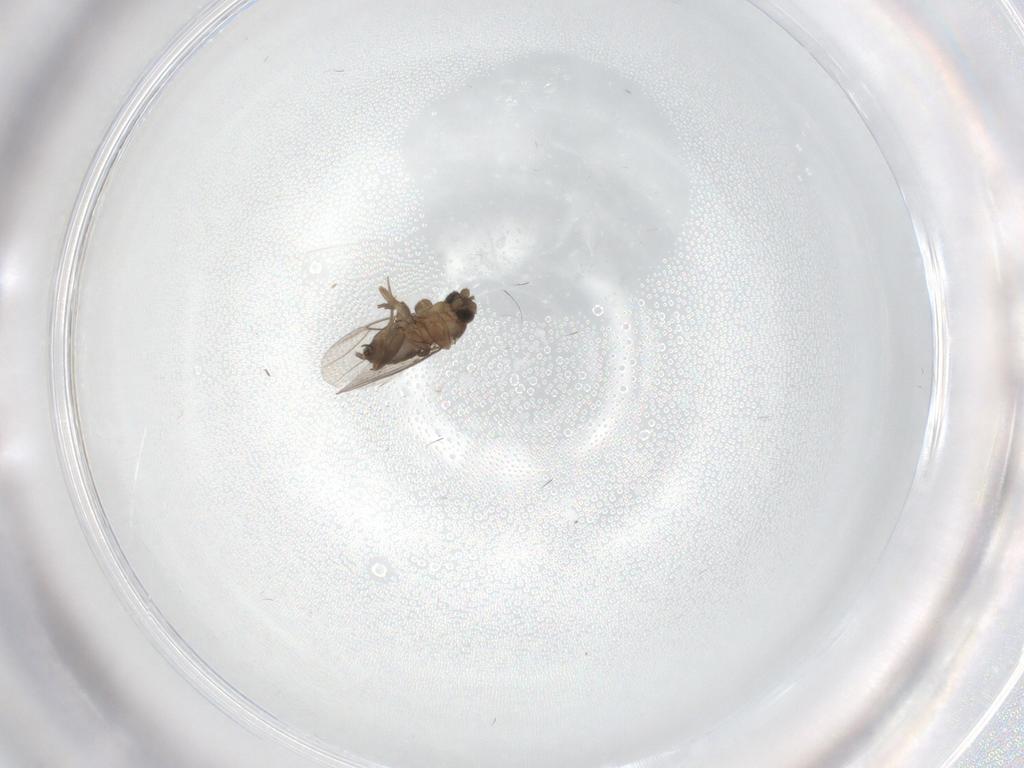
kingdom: Animalia
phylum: Arthropoda
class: Insecta
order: Diptera
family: Phoridae
